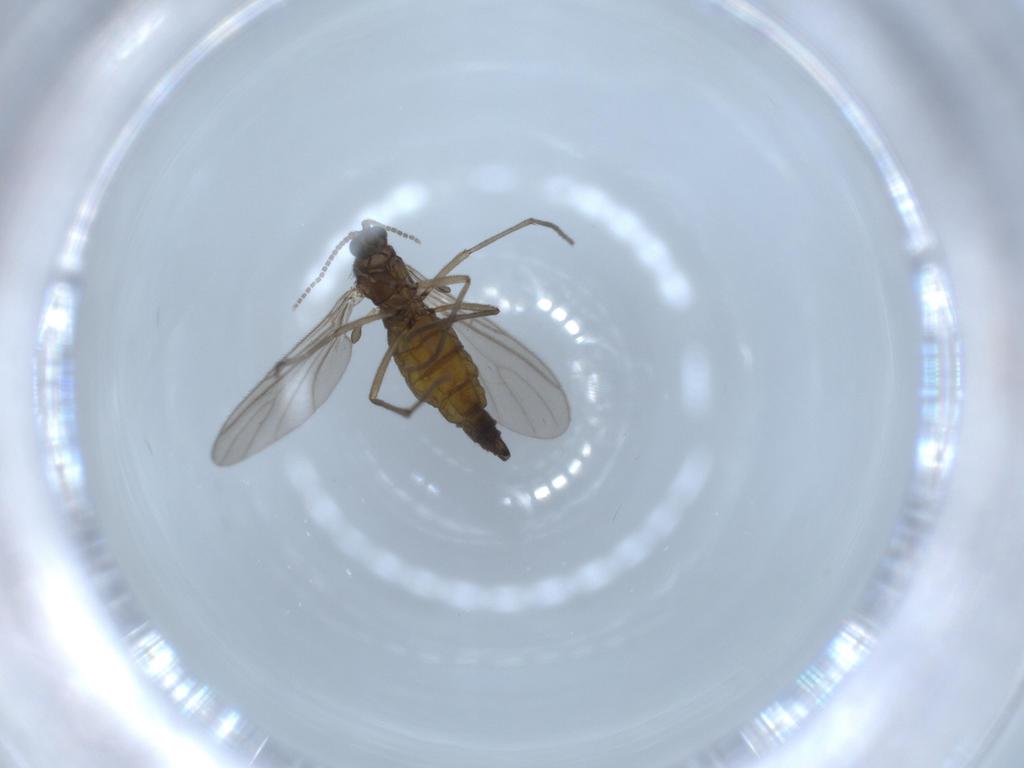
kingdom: Animalia
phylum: Arthropoda
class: Insecta
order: Diptera
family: Sciaridae
